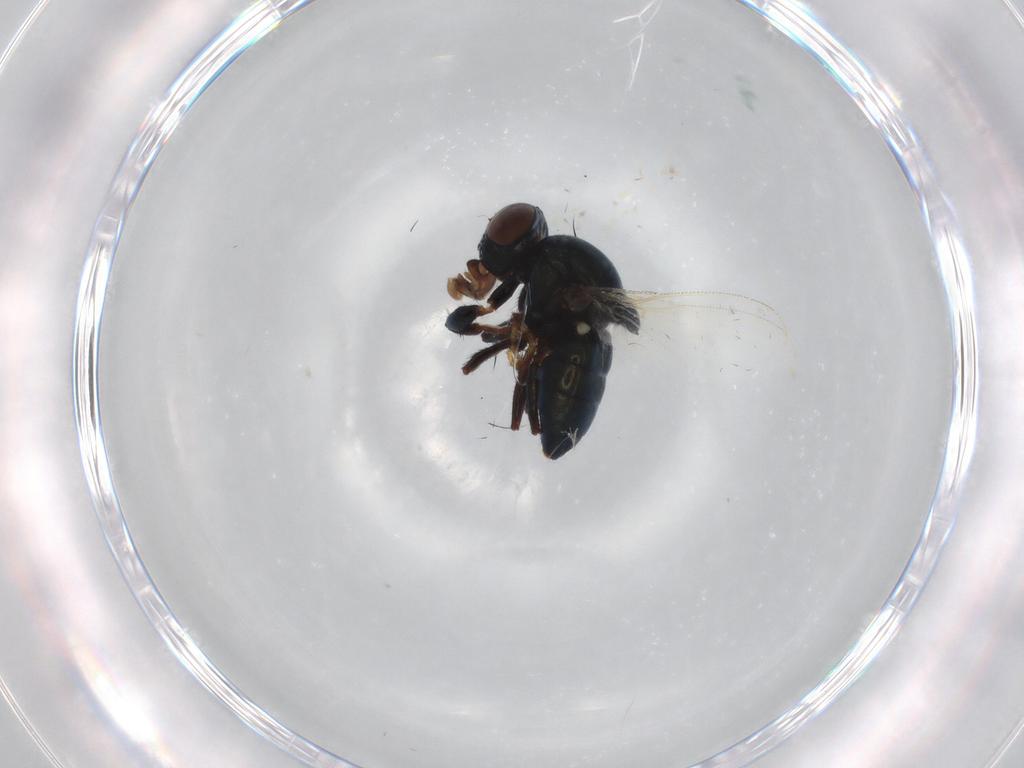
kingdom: Animalia
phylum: Arthropoda
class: Insecta
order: Diptera
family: Ephydridae
